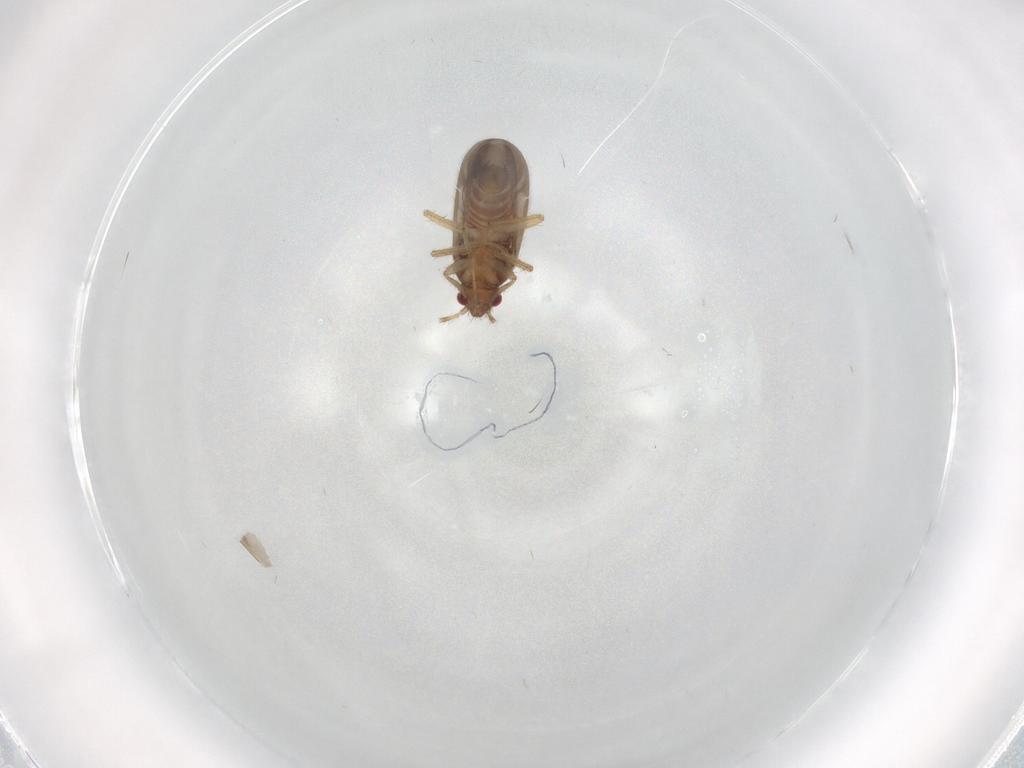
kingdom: Animalia
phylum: Arthropoda
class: Insecta
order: Hemiptera
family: Ceratocombidae
